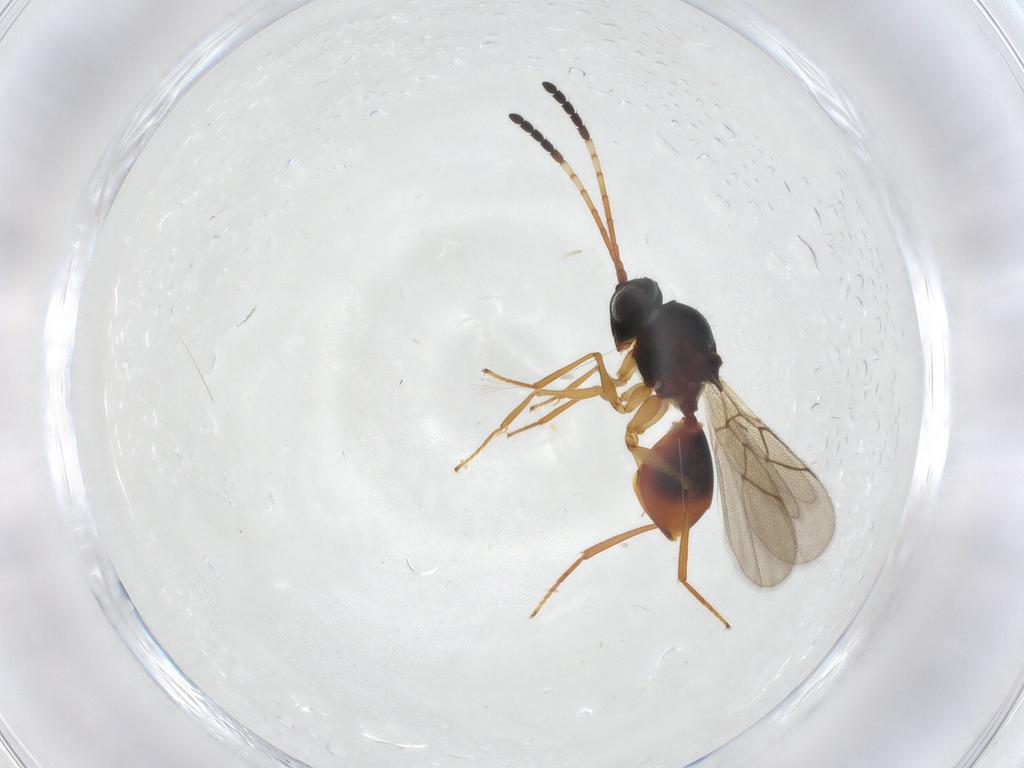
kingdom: Animalia
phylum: Arthropoda
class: Insecta
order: Hymenoptera
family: Figitidae
